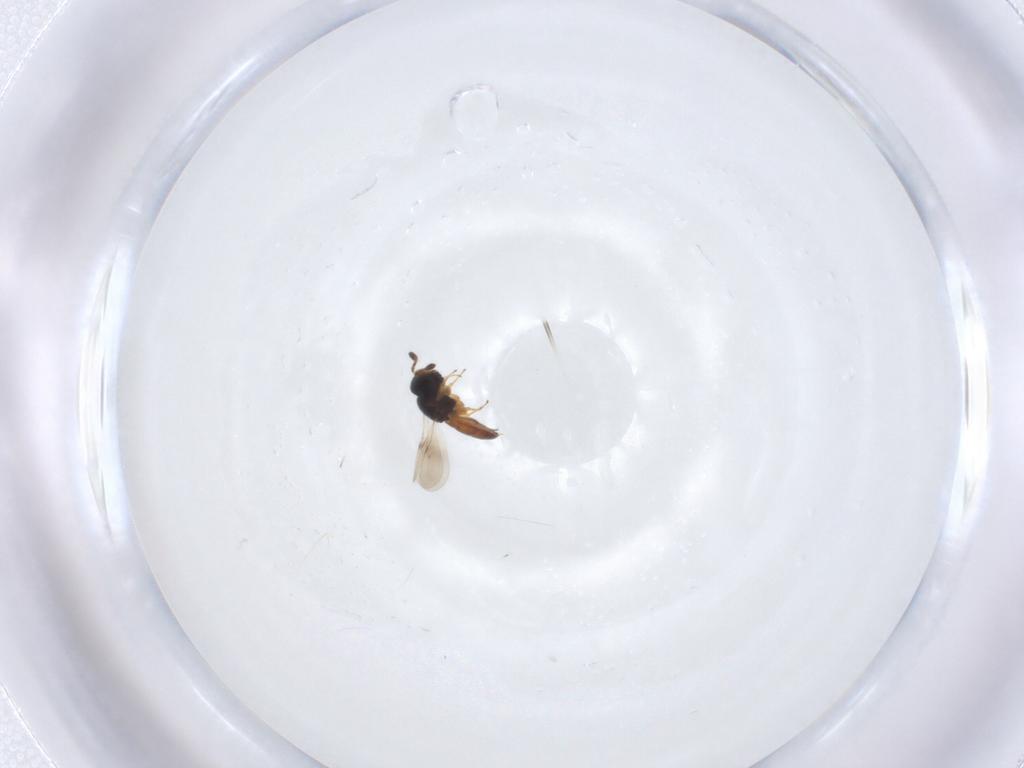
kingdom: Animalia
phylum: Arthropoda
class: Insecta
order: Hymenoptera
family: Scelionidae
